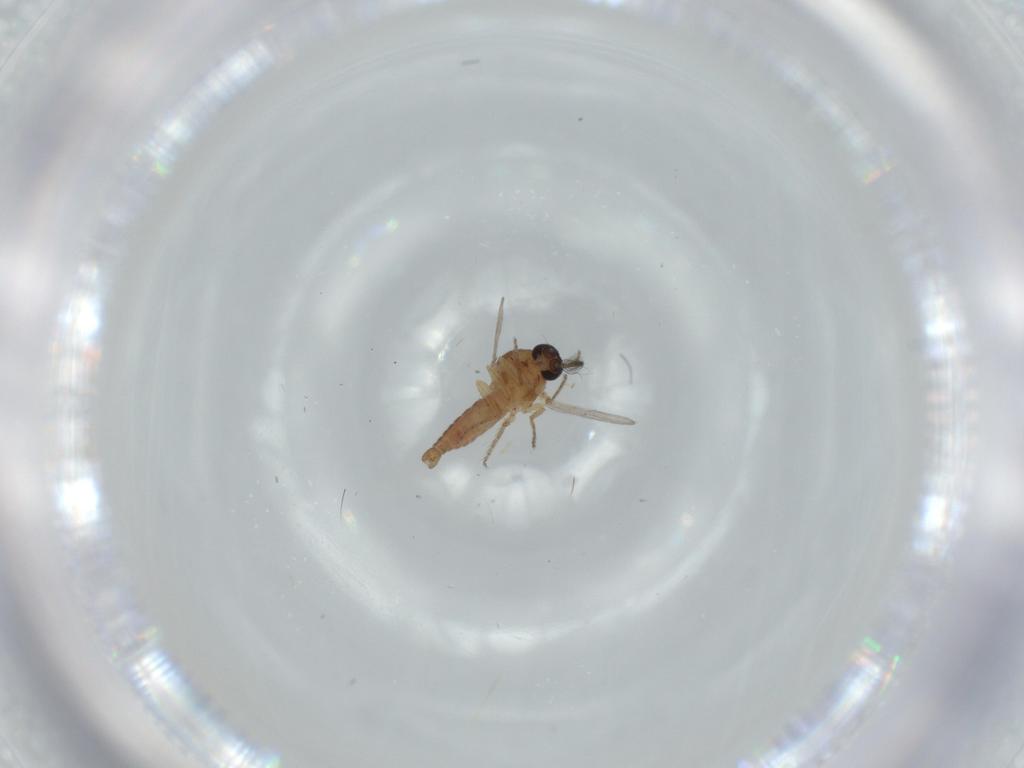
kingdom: Animalia
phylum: Arthropoda
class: Insecta
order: Diptera
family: Ceratopogonidae
